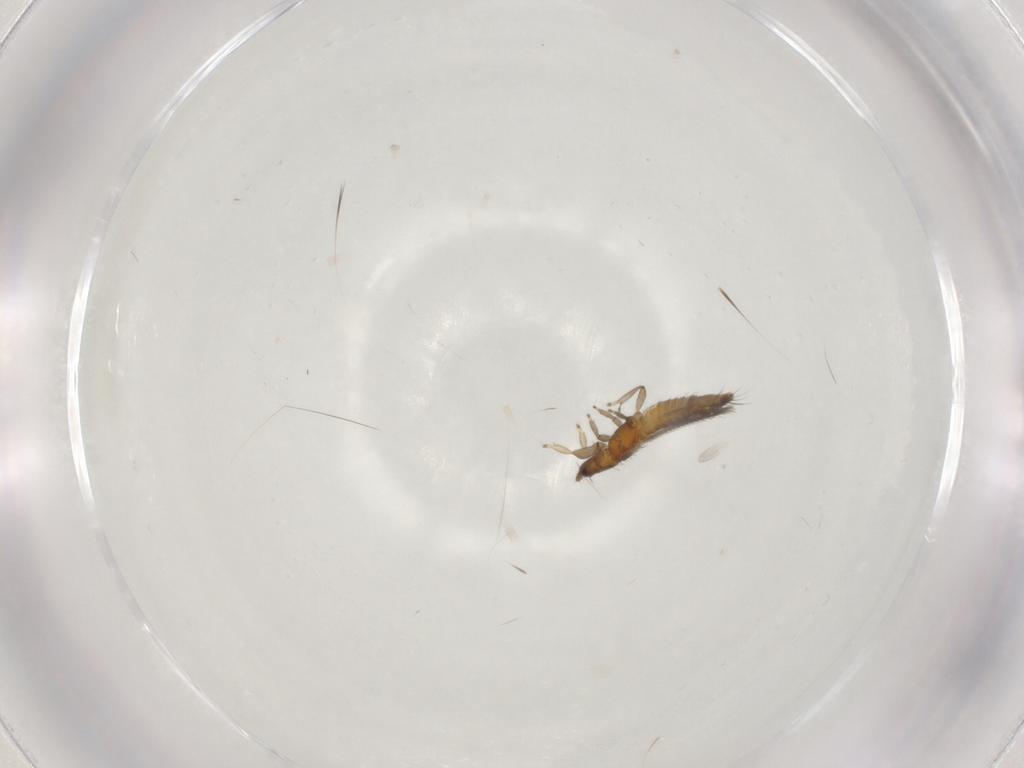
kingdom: Animalia
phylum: Arthropoda
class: Insecta
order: Thysanoptera
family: Thripidae
